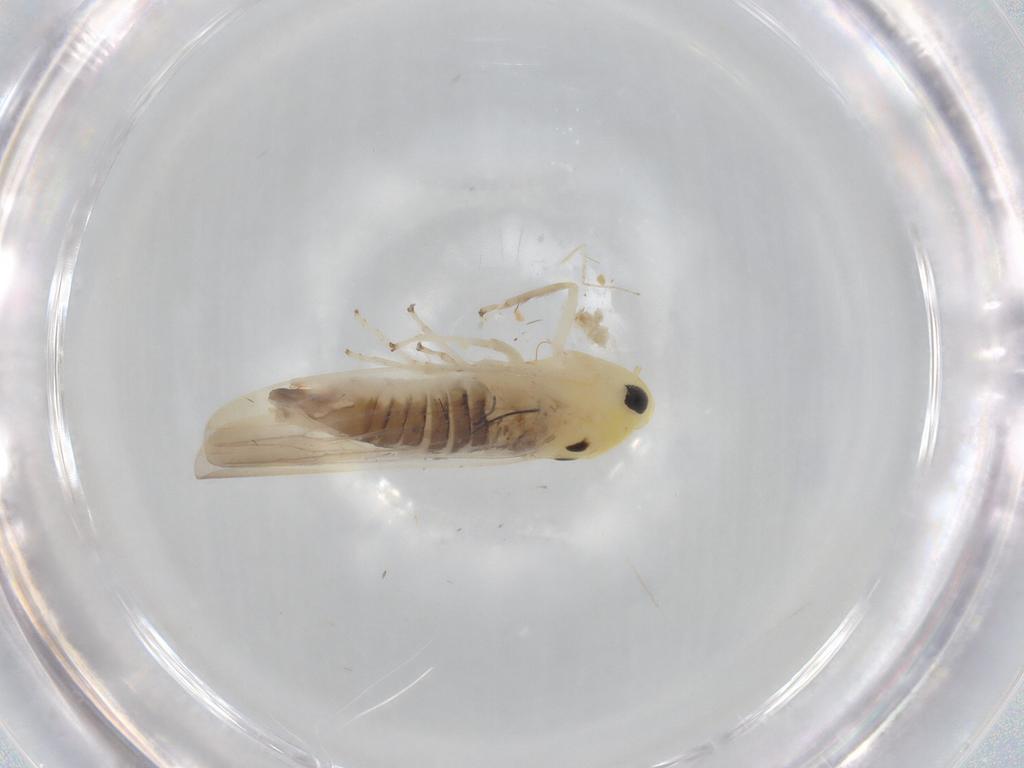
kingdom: Animalia
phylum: Arthropoda
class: Insecta
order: Hemiptera
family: Cicadellidae
